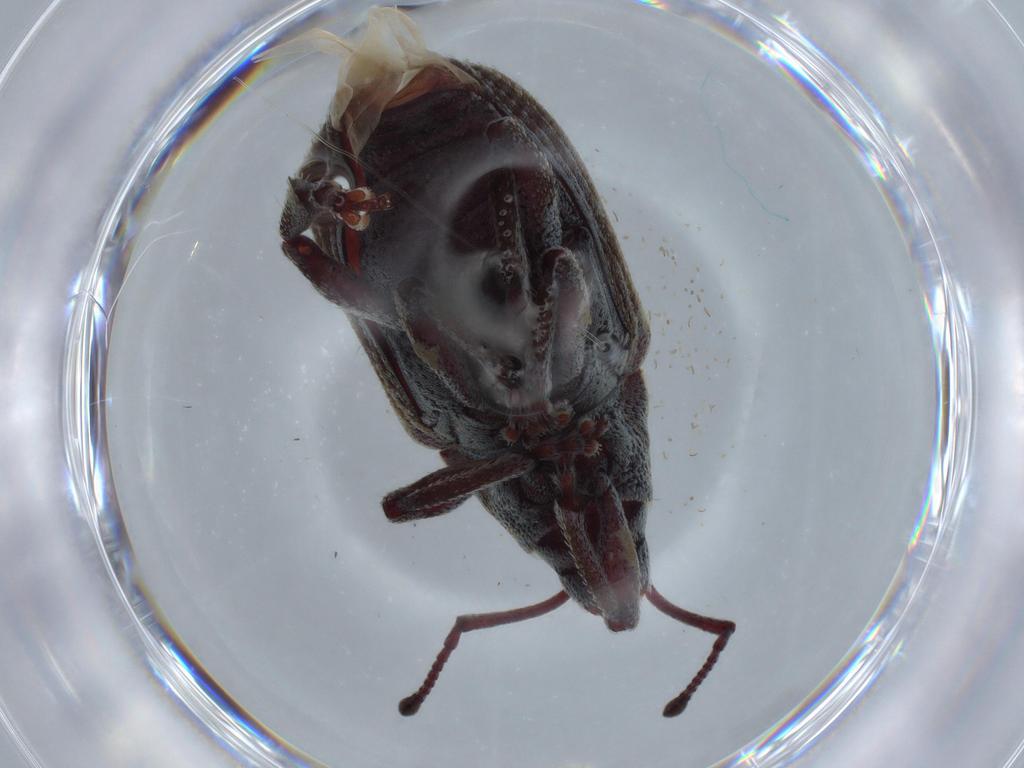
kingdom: Animalia
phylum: Arthropoda
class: Insecta
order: Coleoptera
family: Curculionidae
